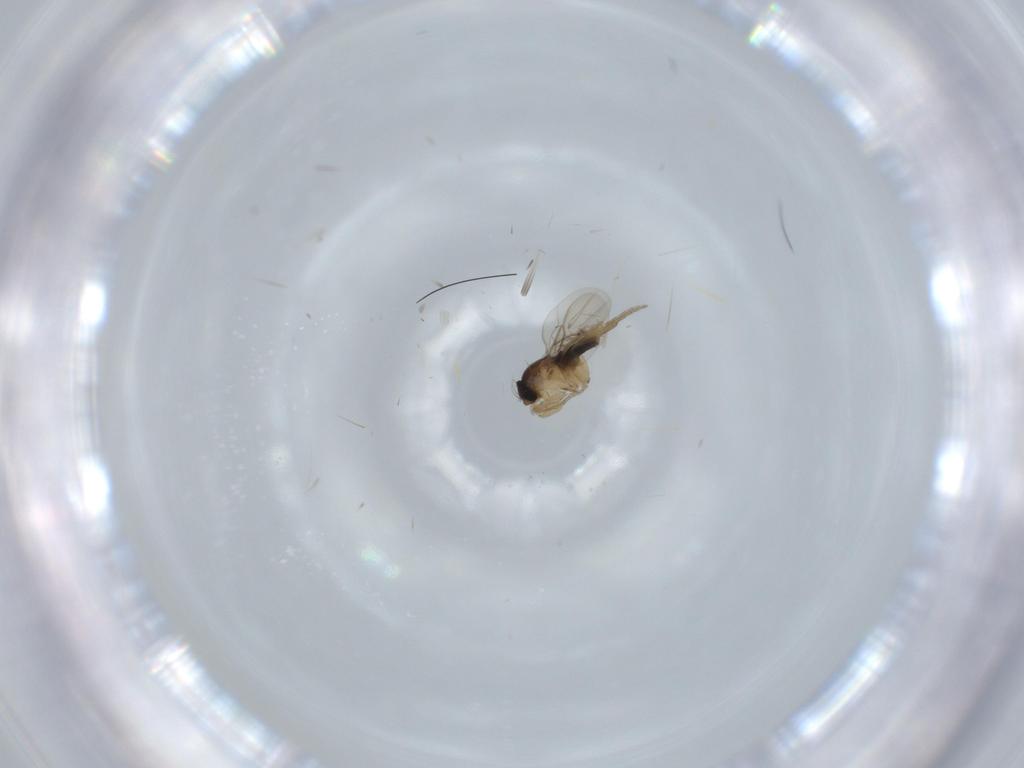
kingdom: Animalia
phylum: Arthropoda
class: Insecta
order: Diptera
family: Phoridae
